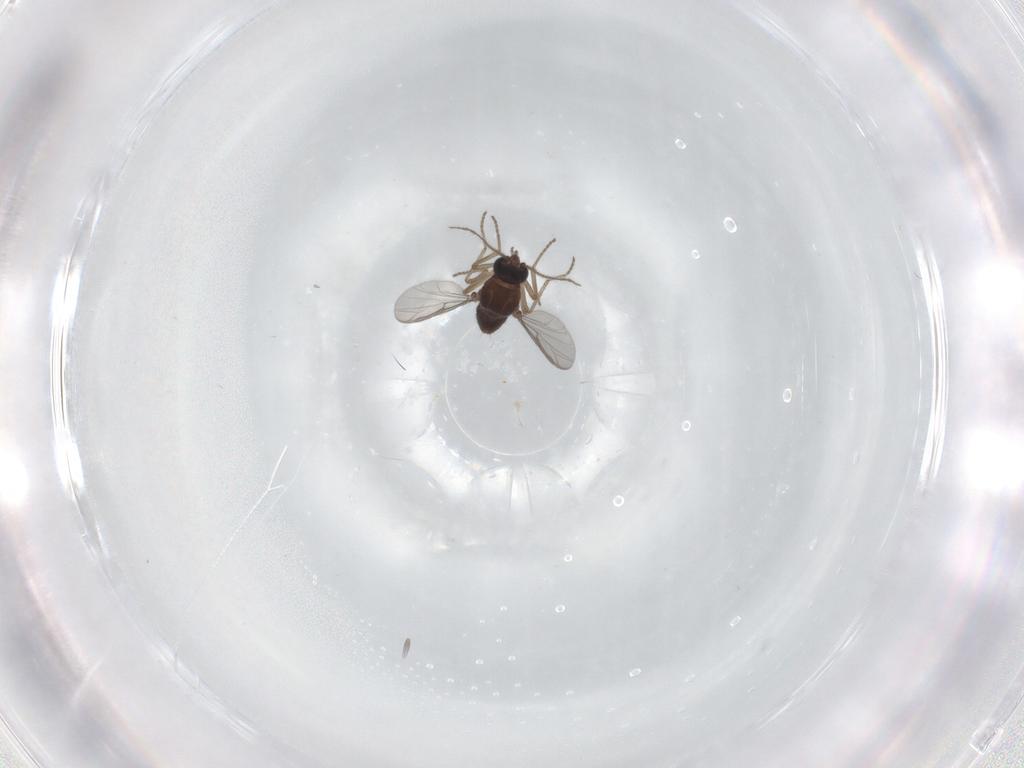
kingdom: Animalia
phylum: Arthropoda
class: Insecta
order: Diptera
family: Ceratopogonidae
